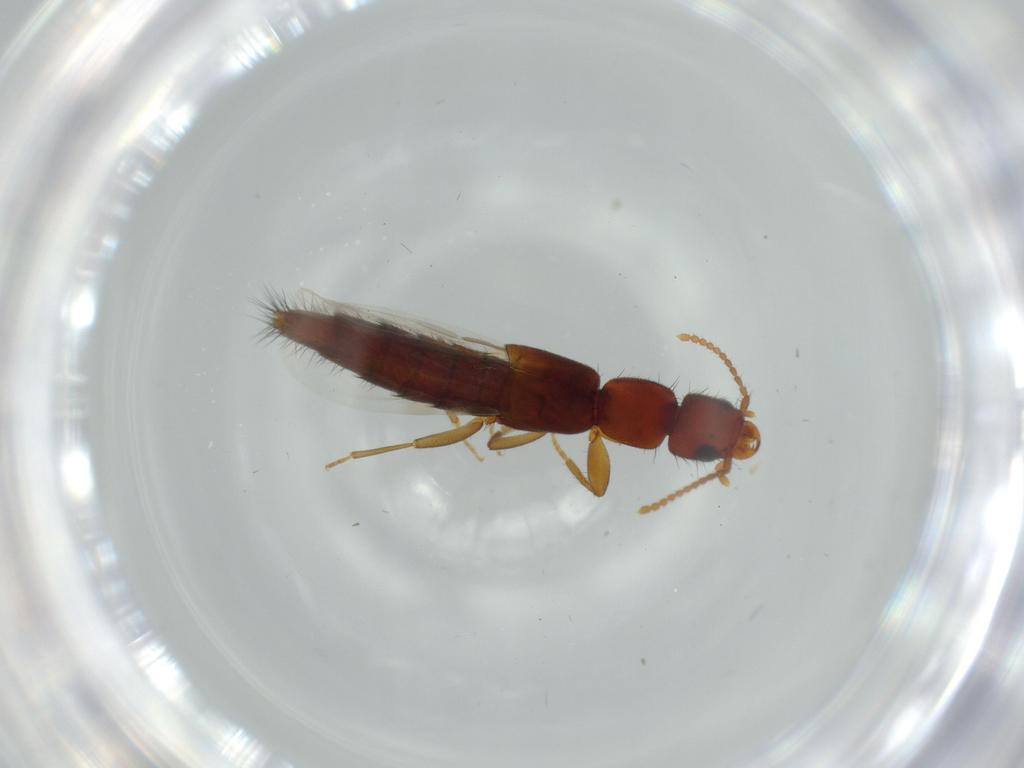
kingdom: Animalia
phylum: Arthropoda
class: Insecta
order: Coleoptera
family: Staphylinidae
